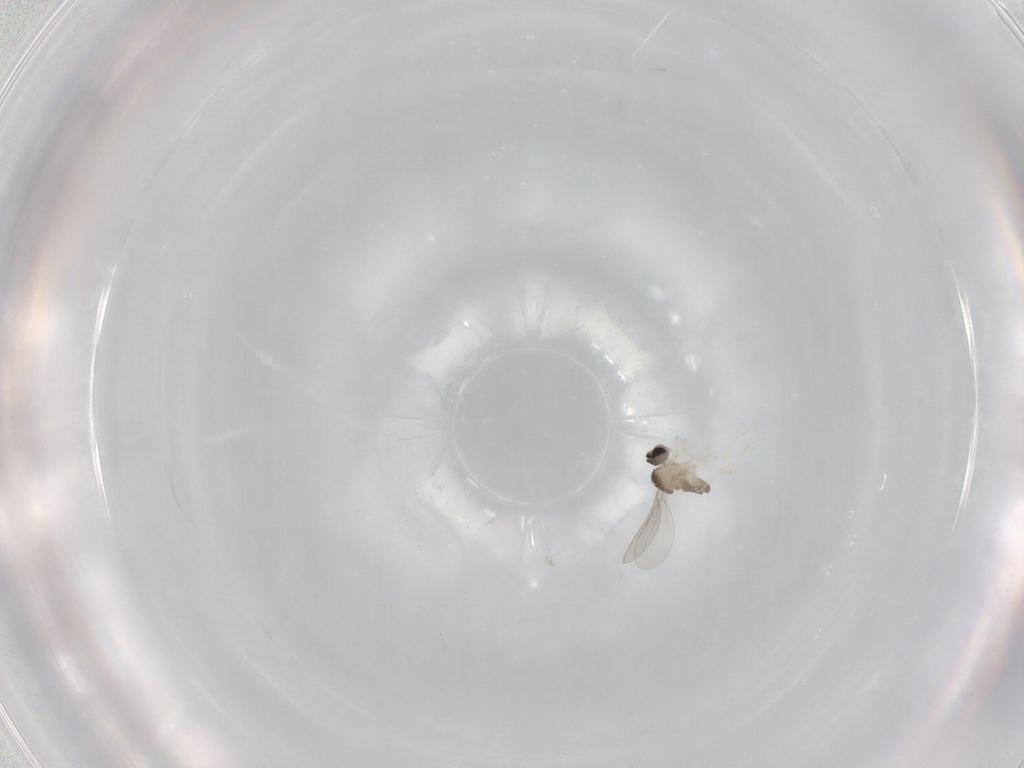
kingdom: Animalia
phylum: Arthropoda
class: Insecta
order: Diptera
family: Cecidomyiidae
